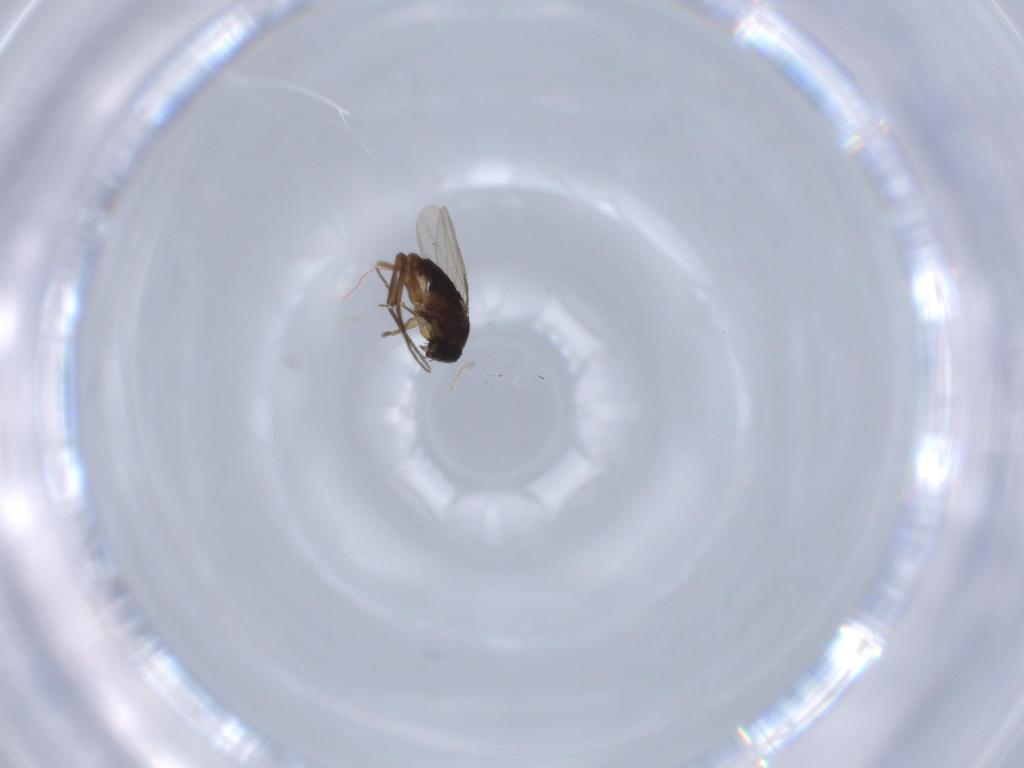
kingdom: Animalia
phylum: Arthropoda
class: Insecta
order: Diptera
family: Phoridae
